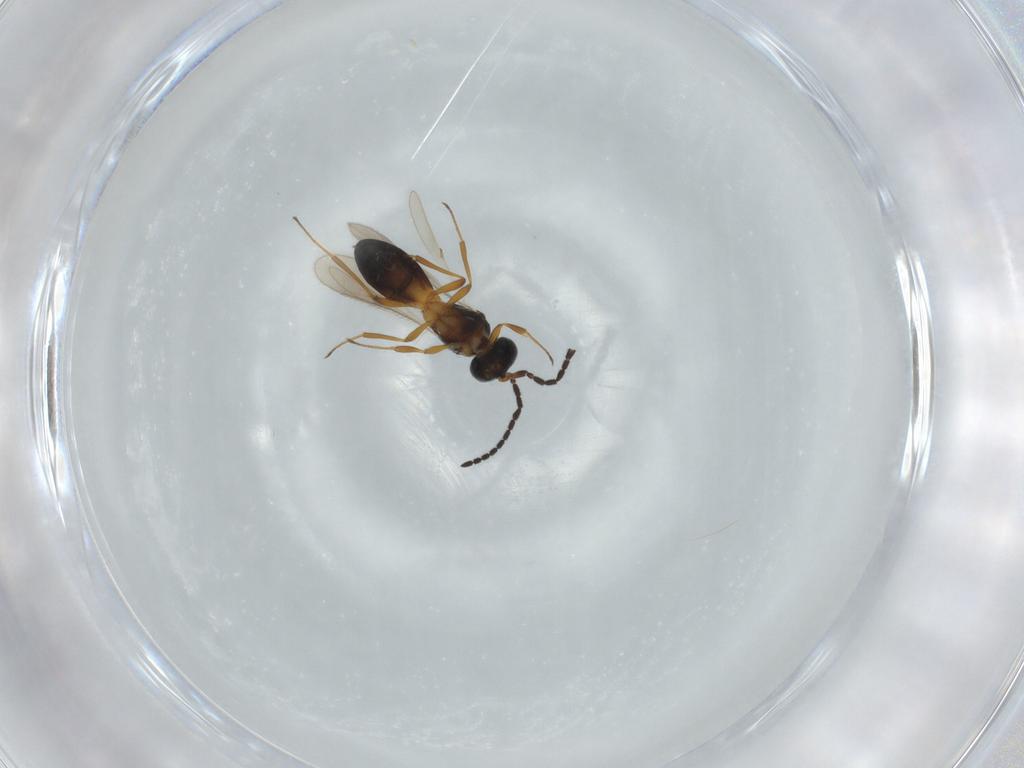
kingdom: Animalia
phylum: Arthropoda
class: Insecta
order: Hymenoptera
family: Scelionidae
